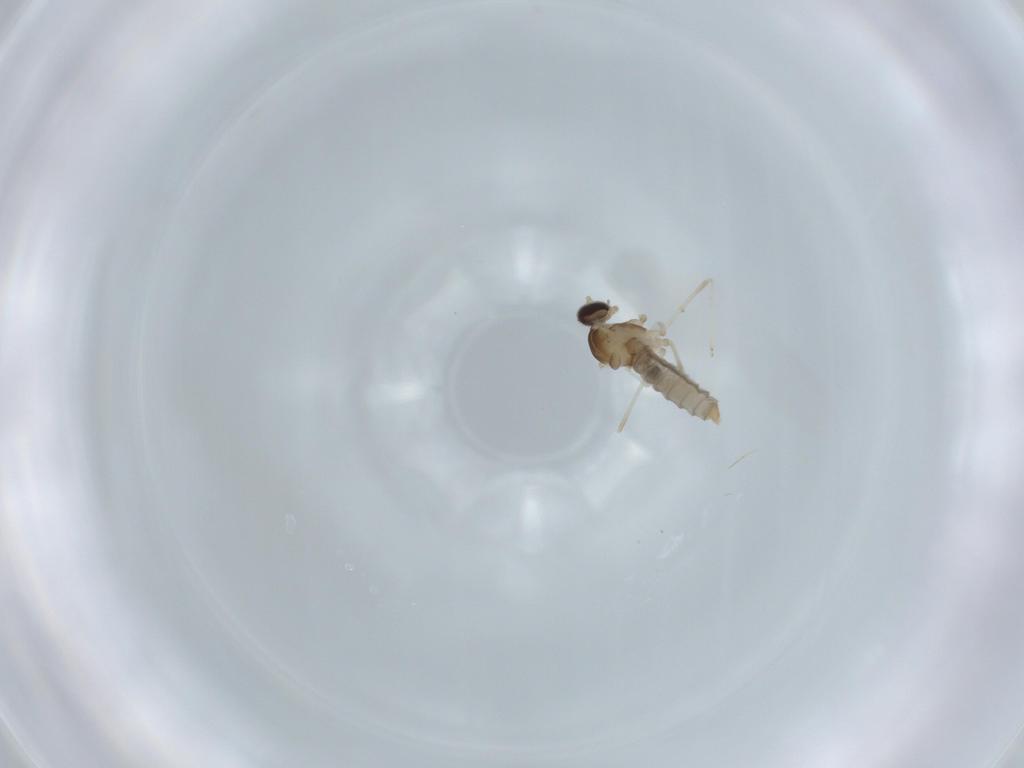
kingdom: Animalia
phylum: Arthropoda
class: Insecta
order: Diptera
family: Cecidomyiidae
